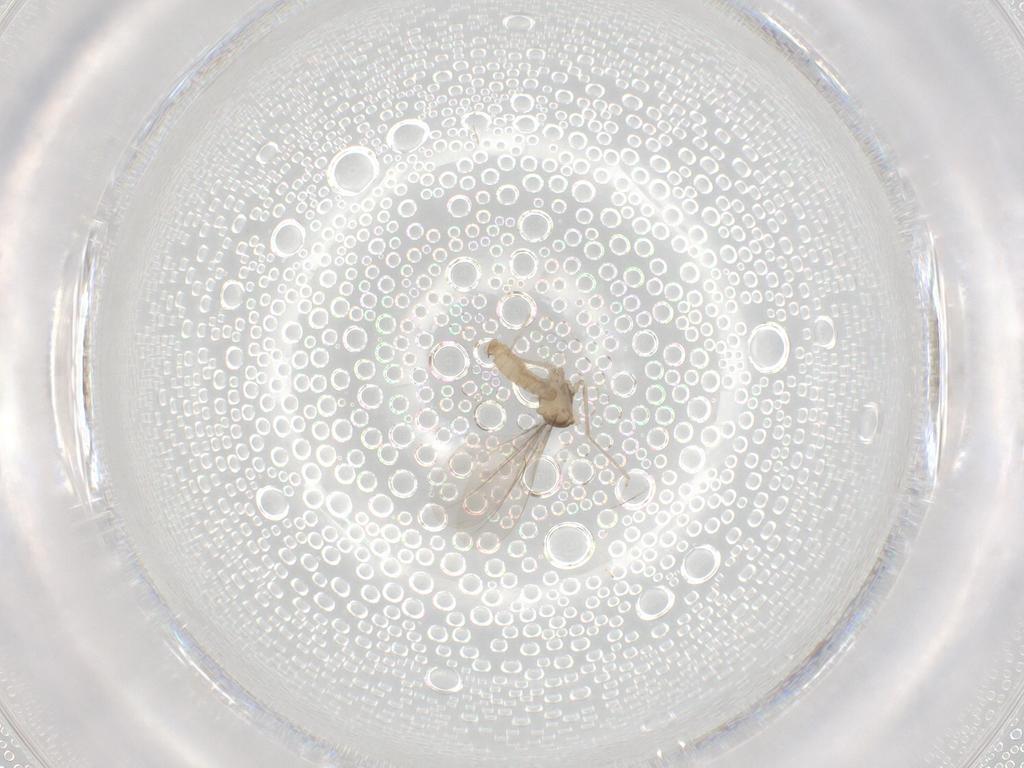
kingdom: Animalia
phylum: Arthropoda
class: Insecta
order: Diptera
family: Cecidomyiidae
